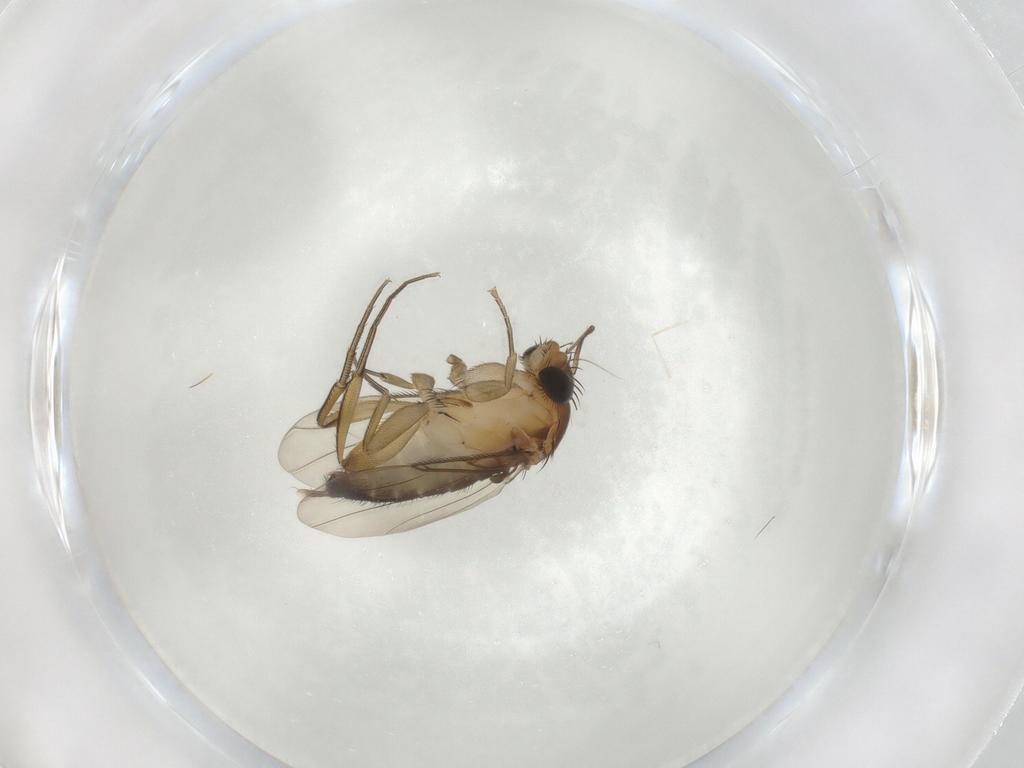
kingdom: Animalia
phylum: Arthropoda
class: Insecta
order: Diptera
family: Phoridae
